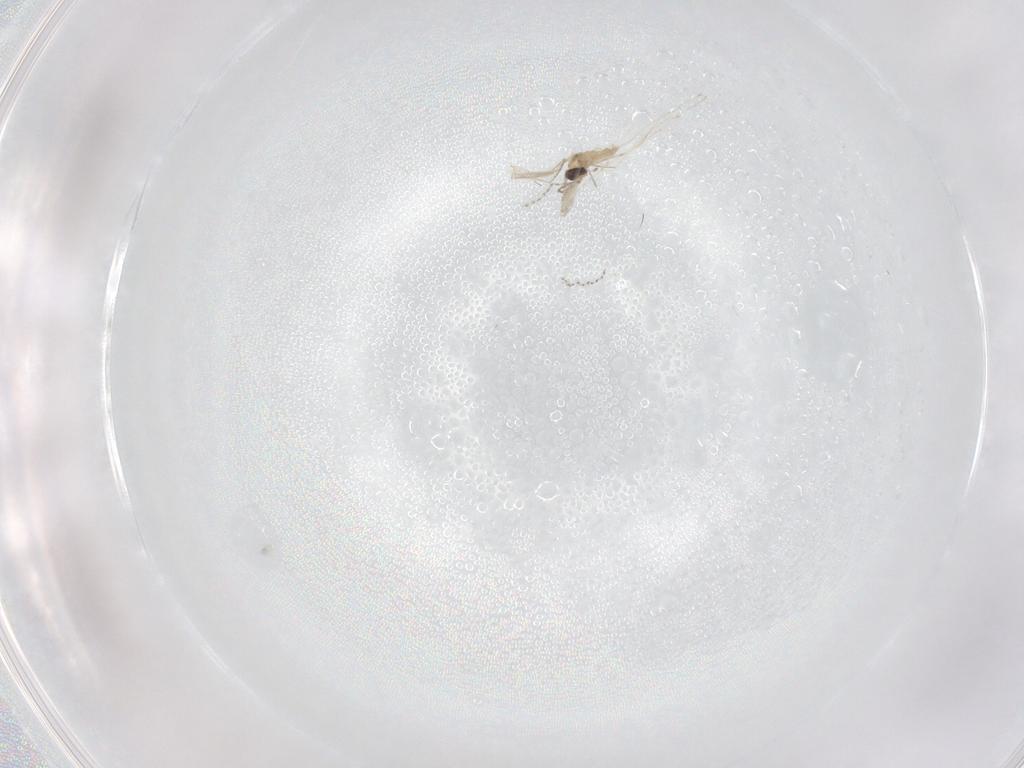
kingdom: Animalia
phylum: Arthropoda
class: Insecta
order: Diptera
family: Cecidomyiidae
